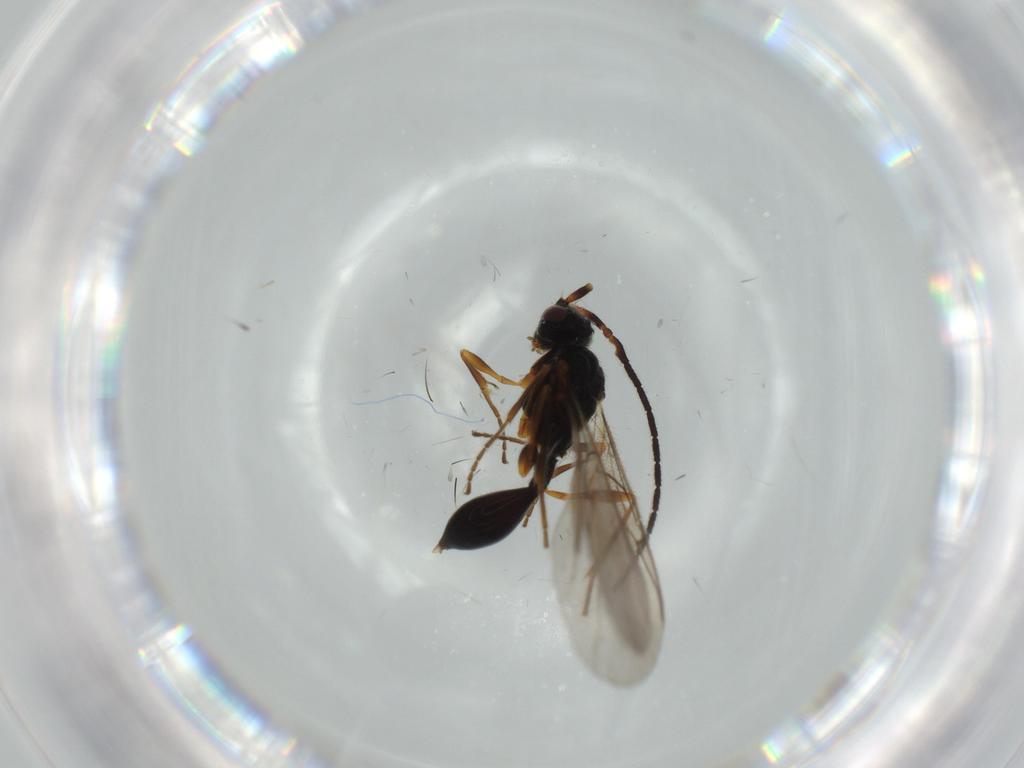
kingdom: Animalia
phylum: Arthropoda
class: Insecta
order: Hymenoptera
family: Diapriidae
